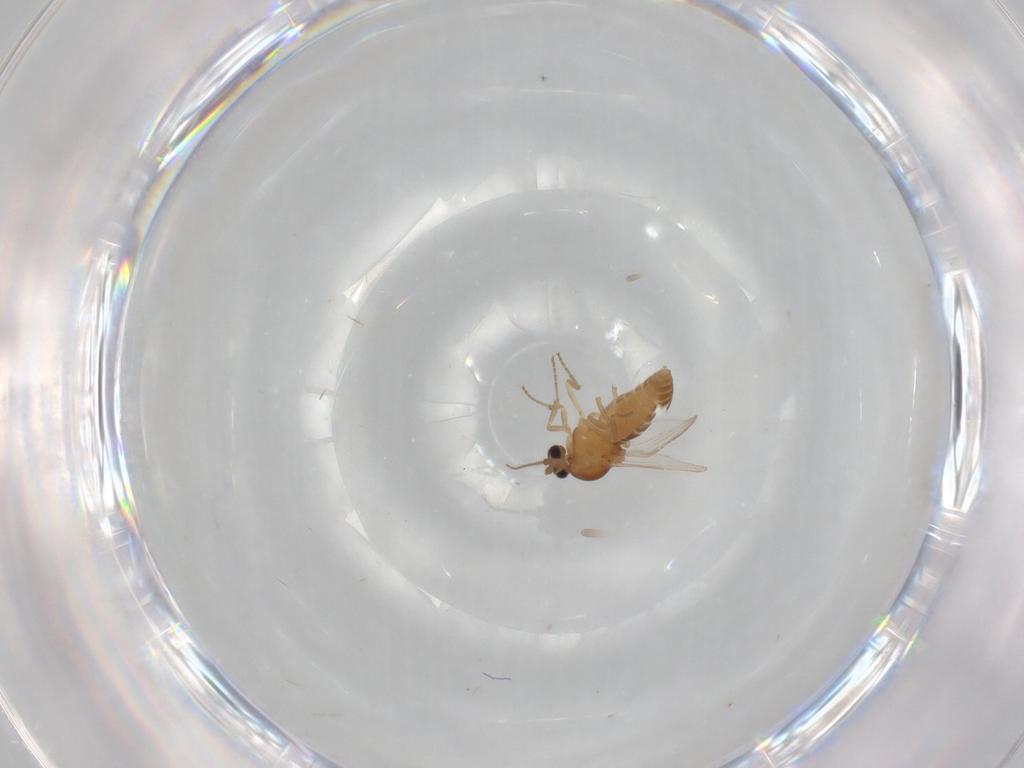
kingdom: Animalia
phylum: Arthropoda
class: Insecta
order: Diptera
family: Ceratopogonidae
